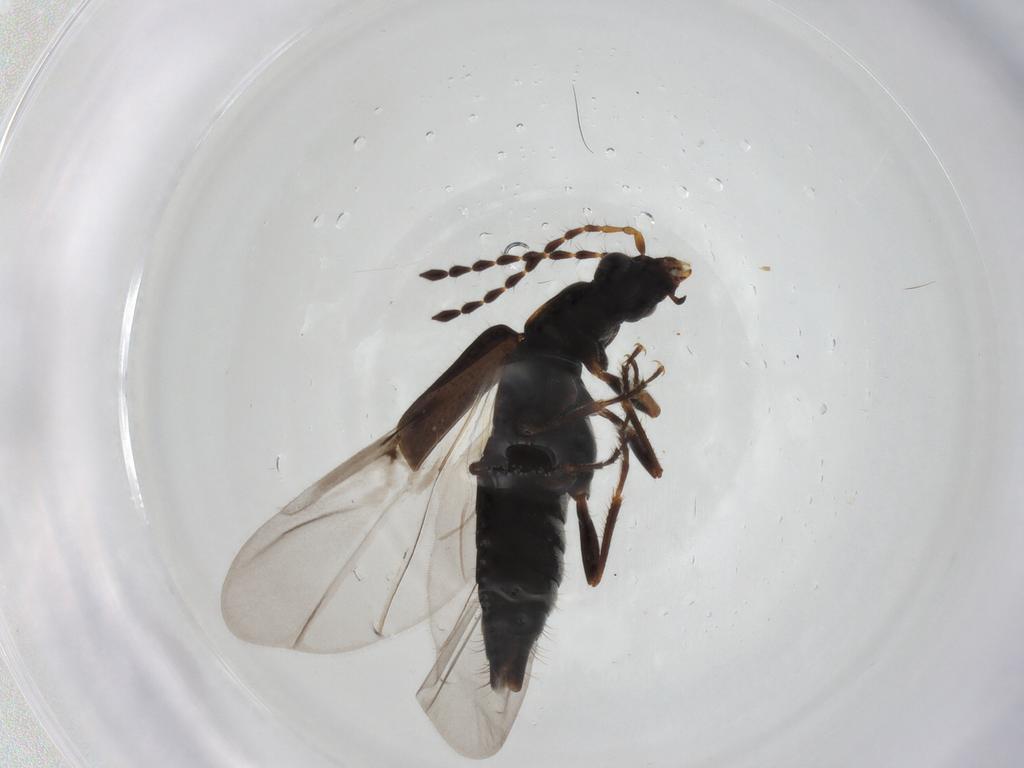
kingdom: Animalia
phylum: Arthropoda
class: Insecta
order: Coleoptera
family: Staphylinidae
